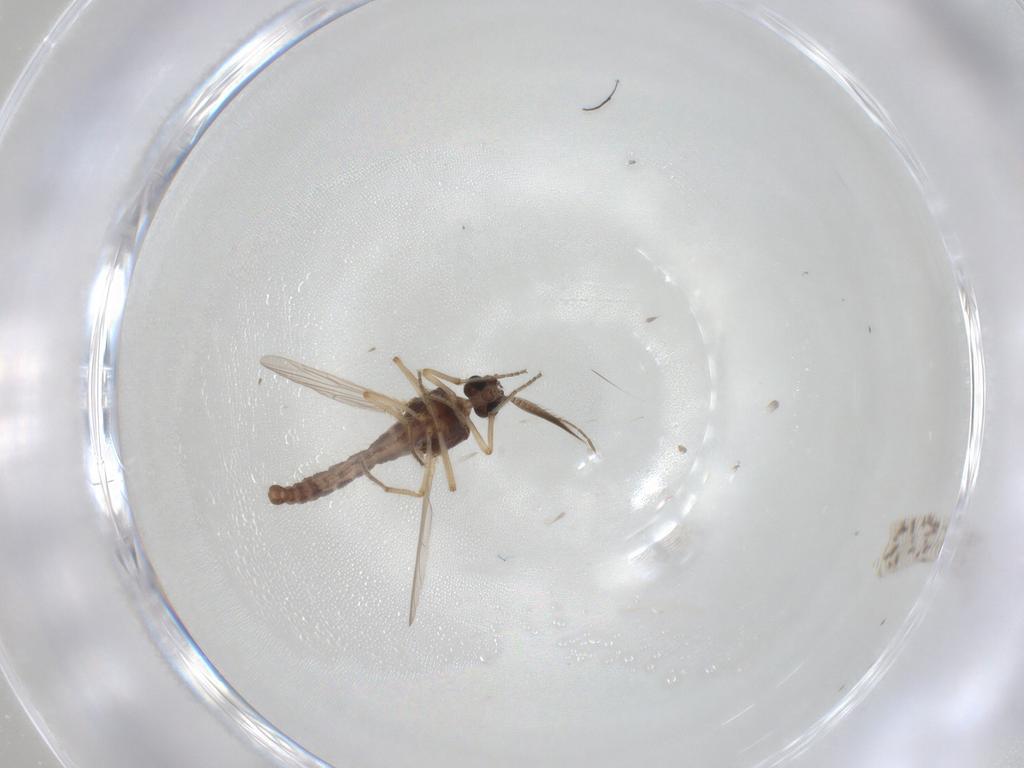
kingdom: Animalia
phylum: Arthropoda
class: Insecta
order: Diptera
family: Ceratopogonidae
